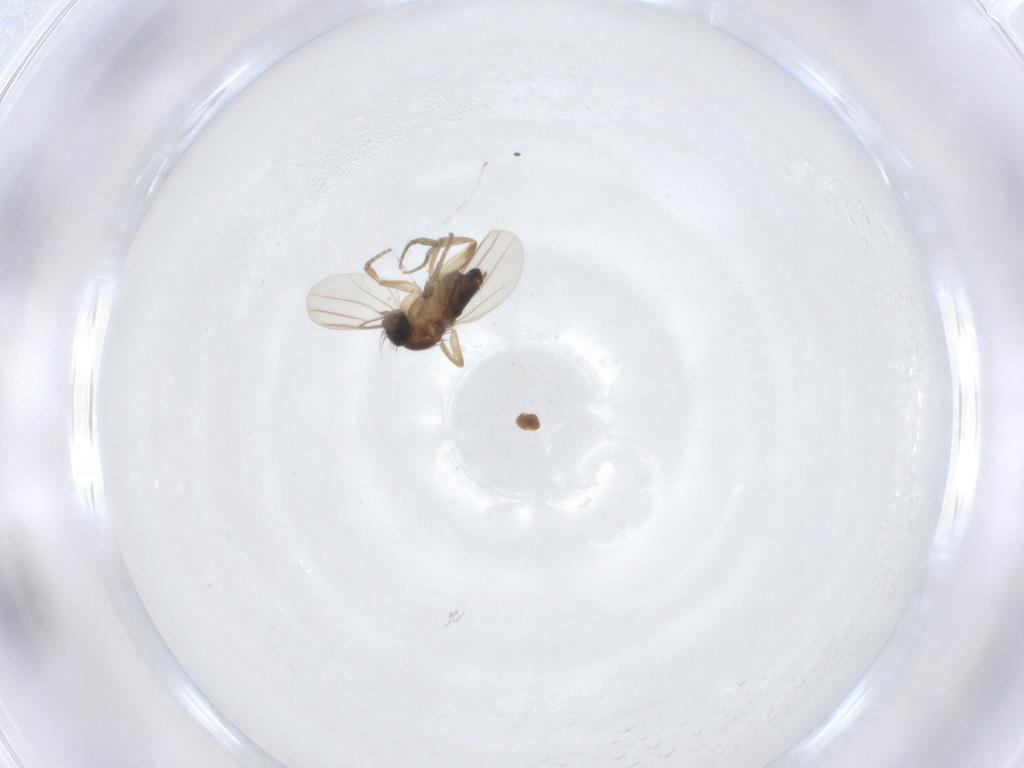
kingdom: Animalia
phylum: Arthropoda
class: Insecta
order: Diptera
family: Phoridae
